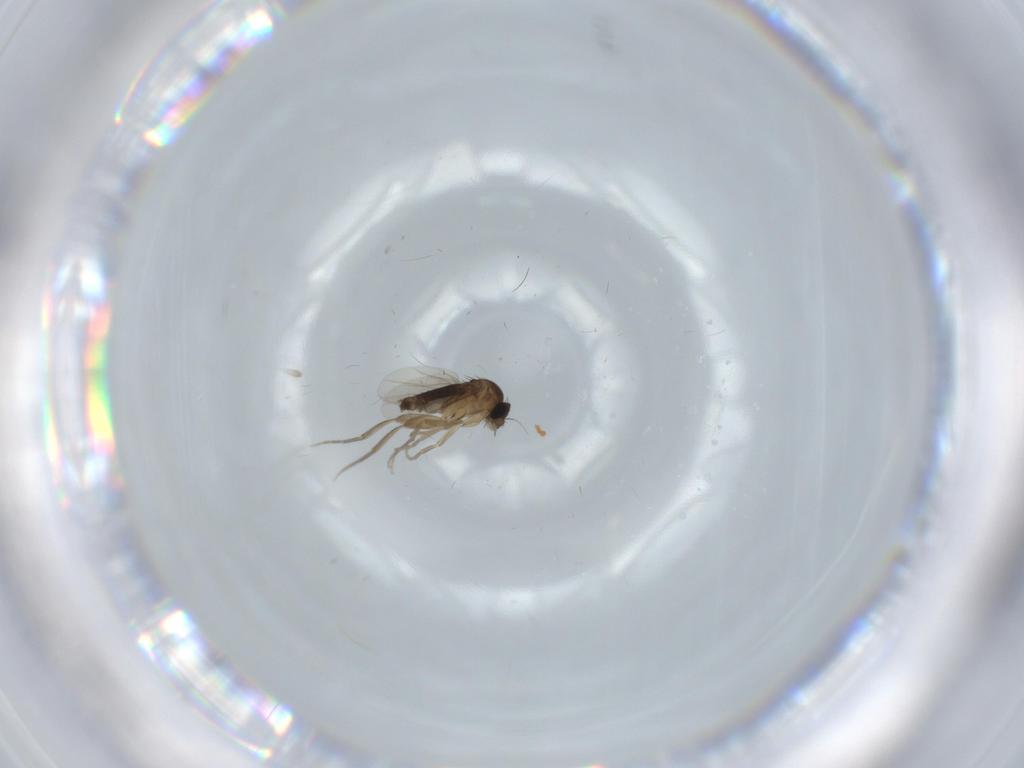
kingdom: Animalia
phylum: Arthropoda
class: Insecta
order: Diptera
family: Phoridae
